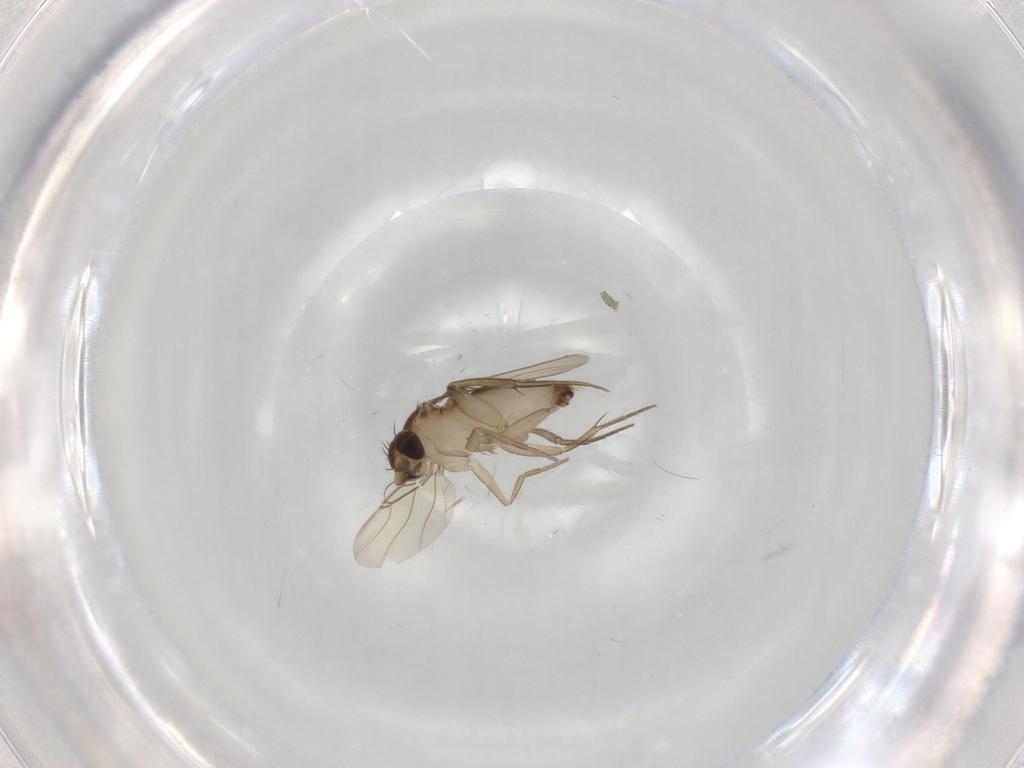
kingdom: Animalia
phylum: Arthropoda
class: Insecta
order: Diptera
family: Phoridae
